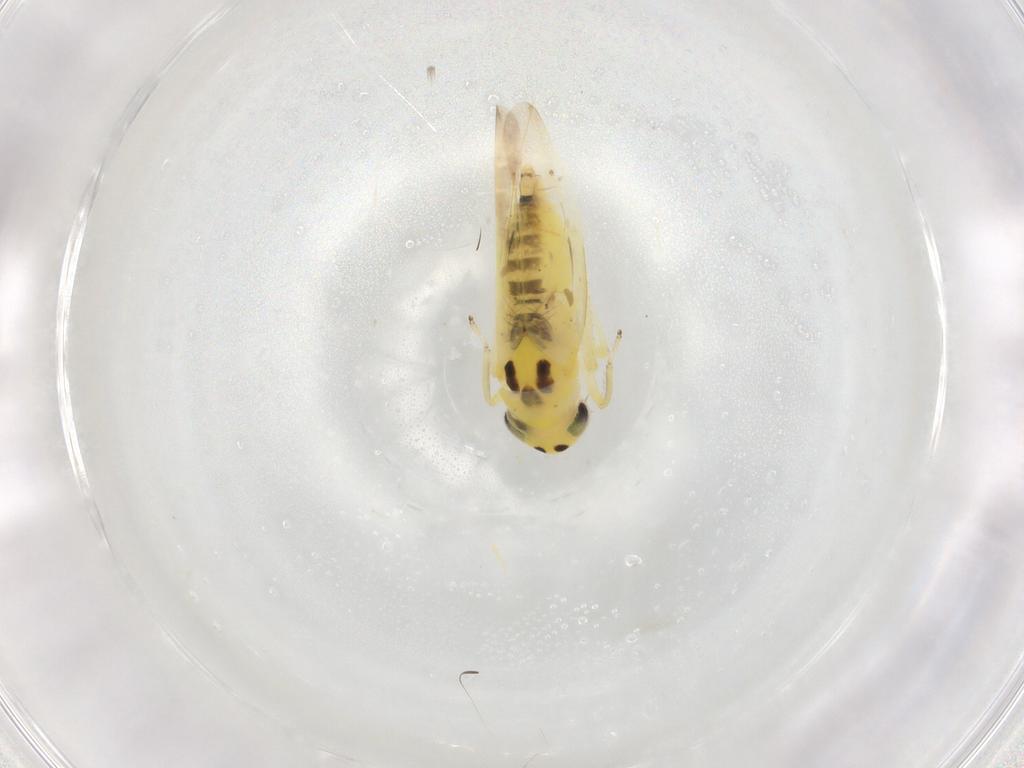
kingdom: Animalia
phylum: Arthropoda
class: Insecta
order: Hemiptera
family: Cicadellidae
